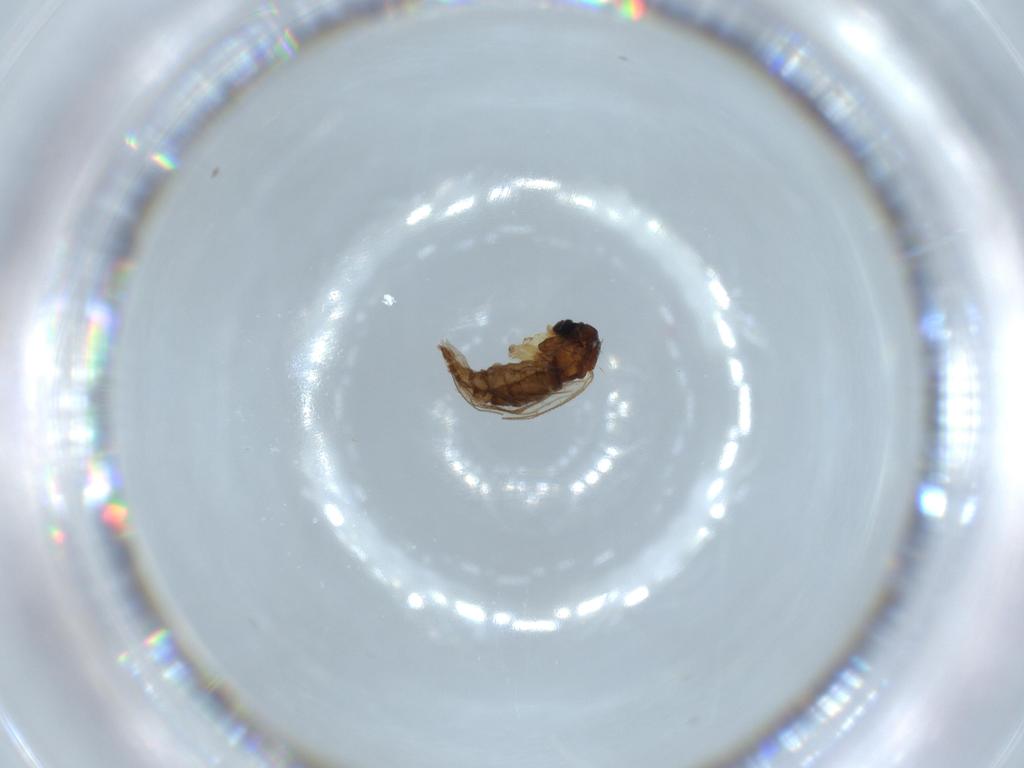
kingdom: Animalia
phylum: Arthropoda
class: Insecta
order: Diptera
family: Sciaridae
